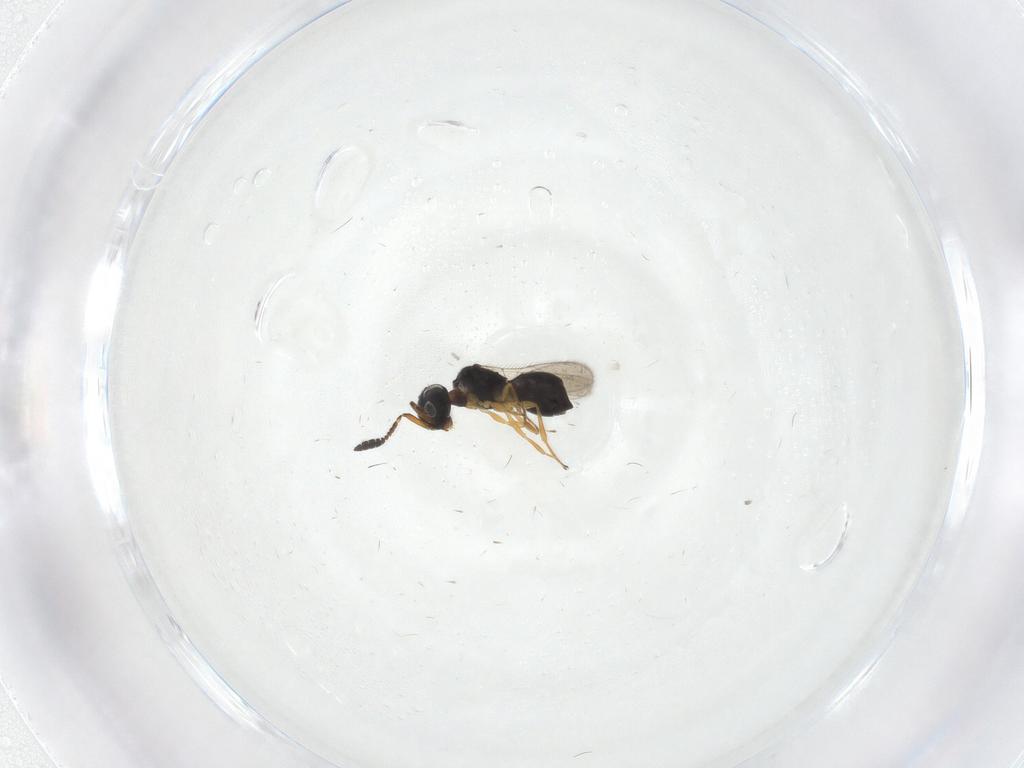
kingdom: Animalia
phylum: Arthropoda
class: Insecta
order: Hymenoptera
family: Scelionidae
